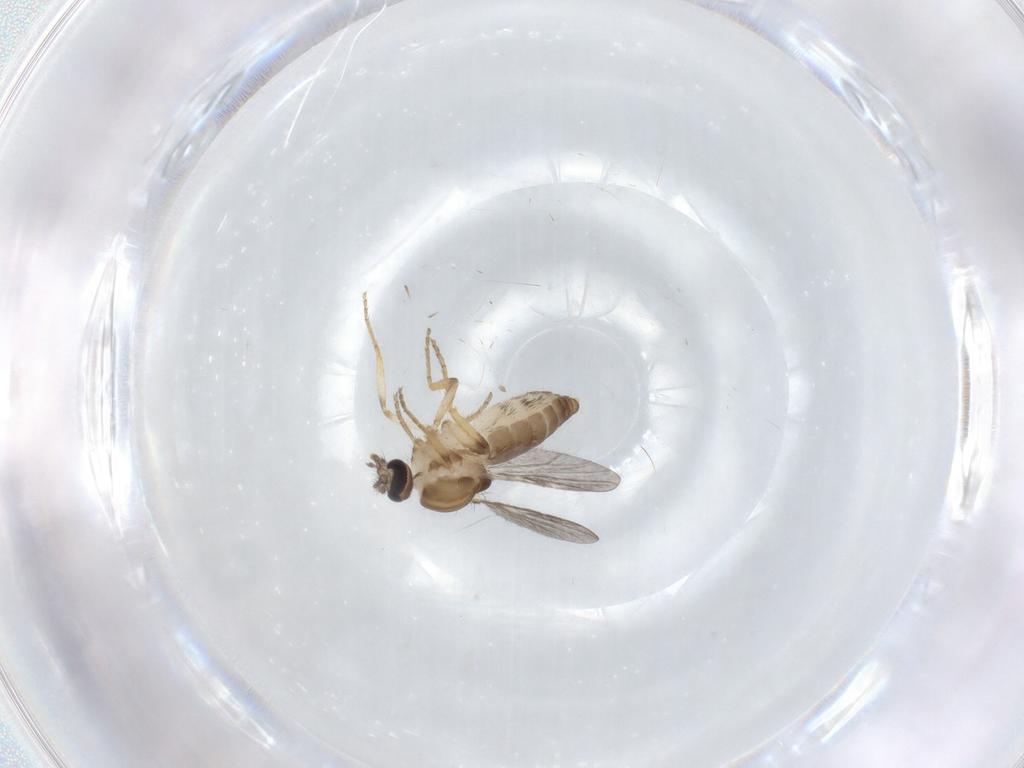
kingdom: Animalia
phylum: Arthropoda
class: Insecta
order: Diptera
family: Ceratopogonidae
